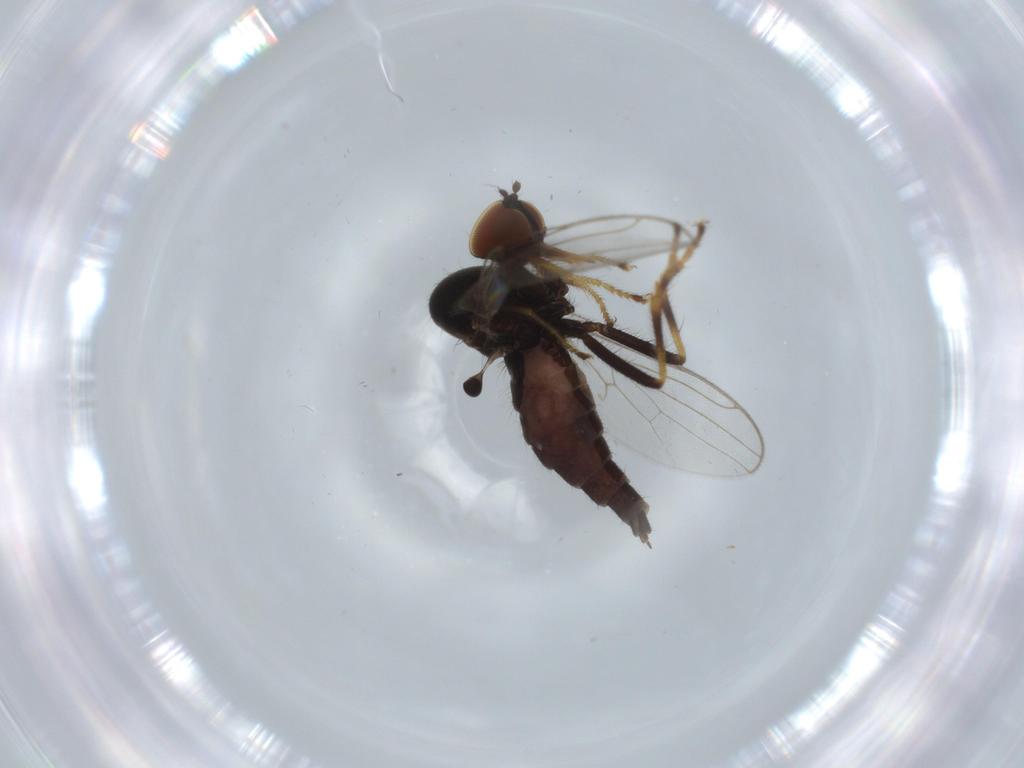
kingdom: Animalia
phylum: Arthropoda
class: Insecta
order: Diptera
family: Hybotidae
